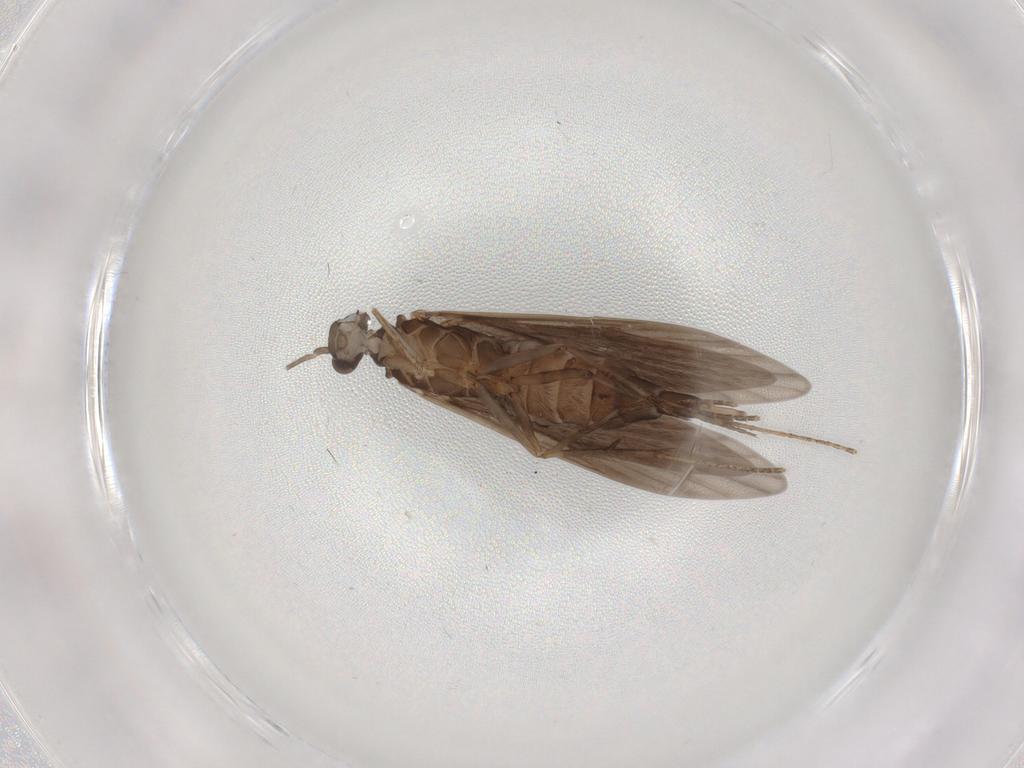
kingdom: Animalia
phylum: Arthropoda
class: Insecta
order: Trichoptera
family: Xiphocentronidae
